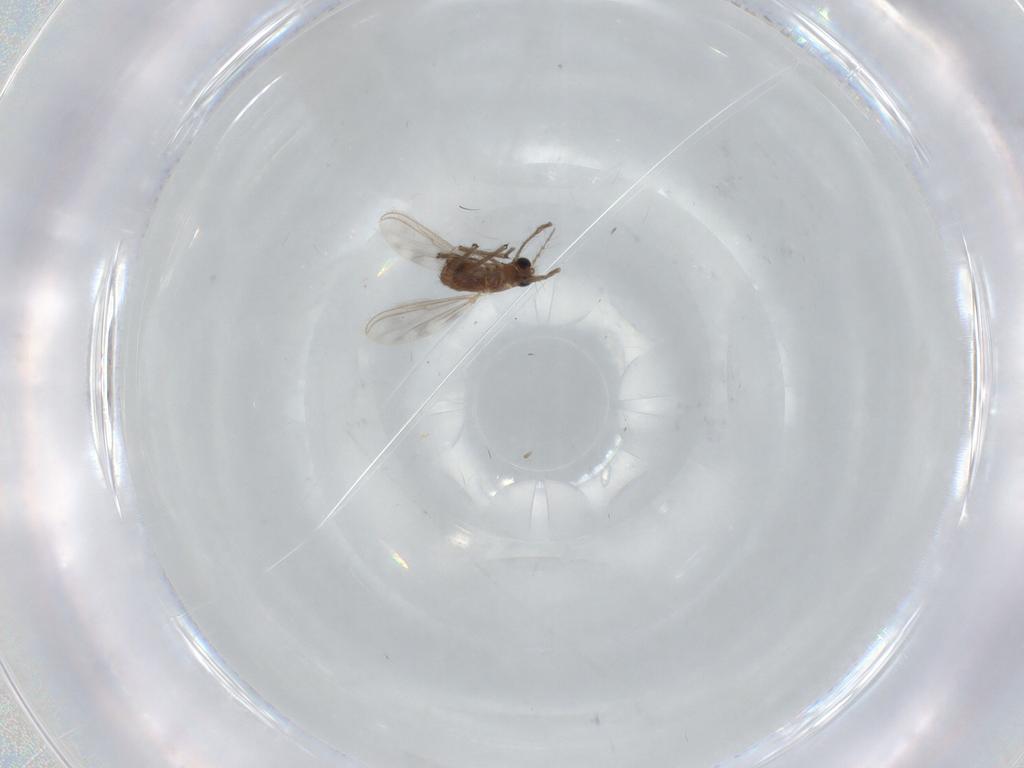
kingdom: Animalia
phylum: Arthropoda
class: Insecta
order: Diptera
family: Chironomidae
